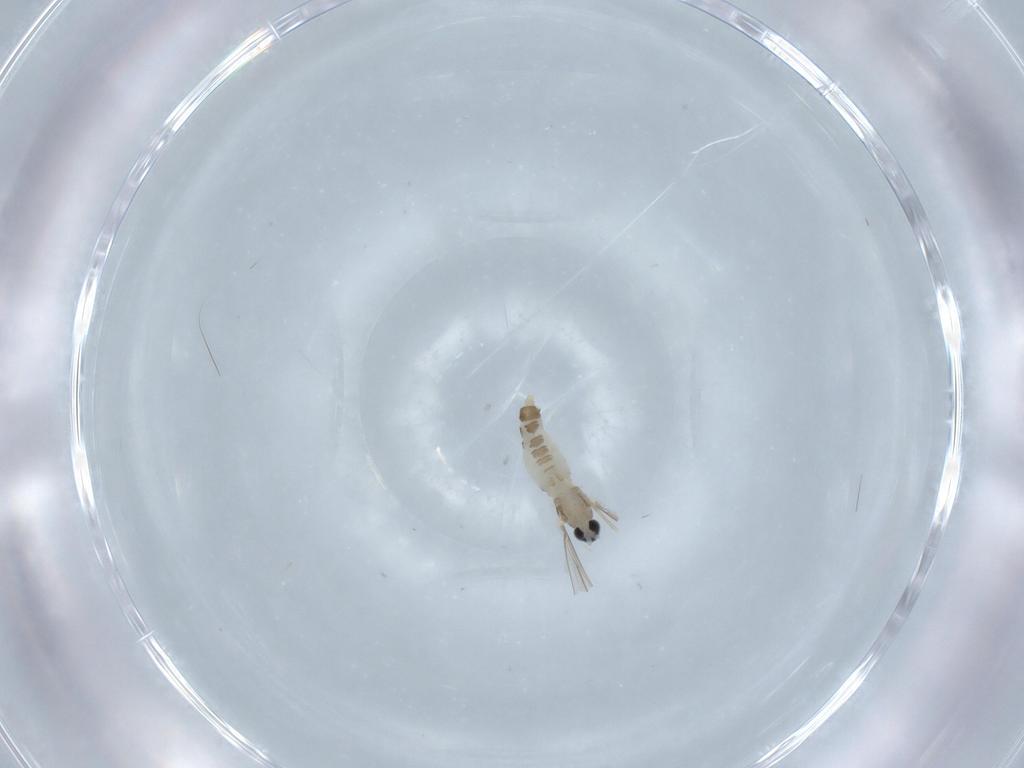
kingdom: Animalia
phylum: Arthropoda
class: Insecta
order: Diptera
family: Cecidomyiidae
